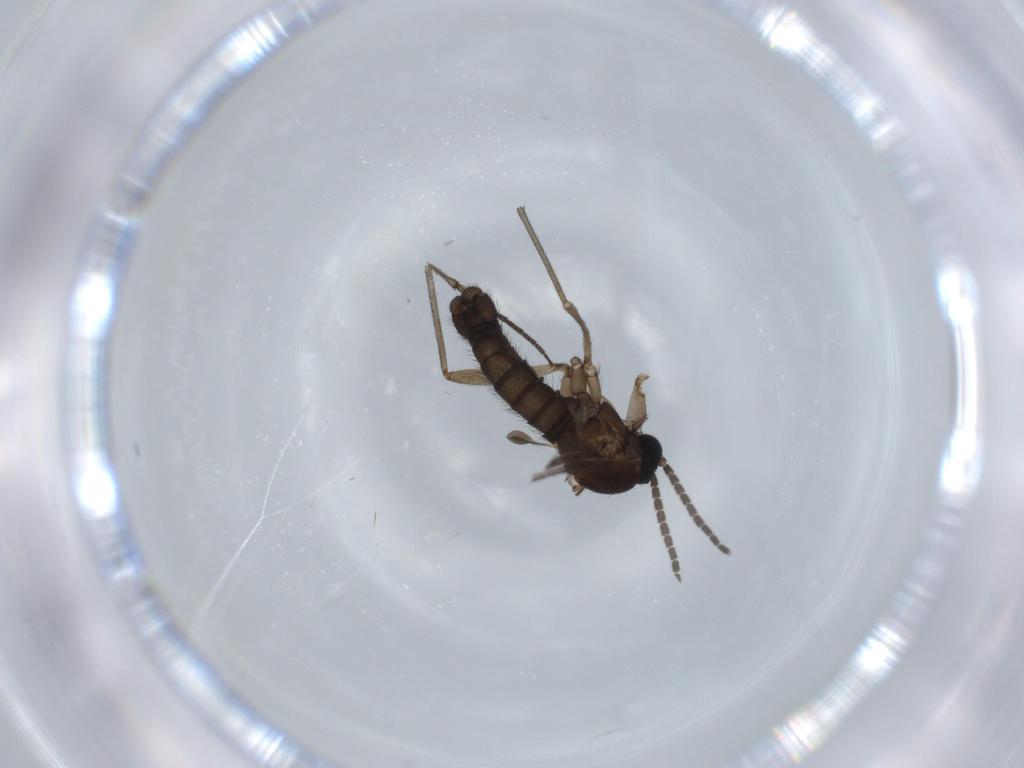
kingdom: Animalia
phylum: Arthropoda
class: Insecta
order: Diptera
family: Sciaridae
